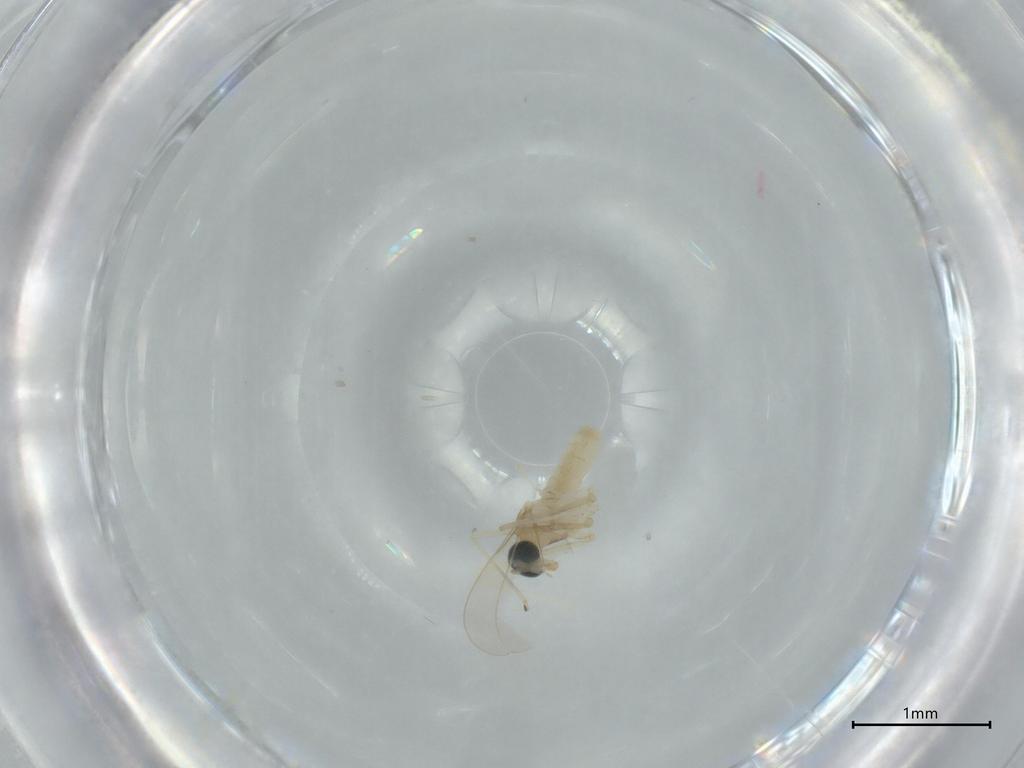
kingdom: Animalia
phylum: Arthropoda
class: Insecta
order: Diptera
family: Cecidomyiidae
